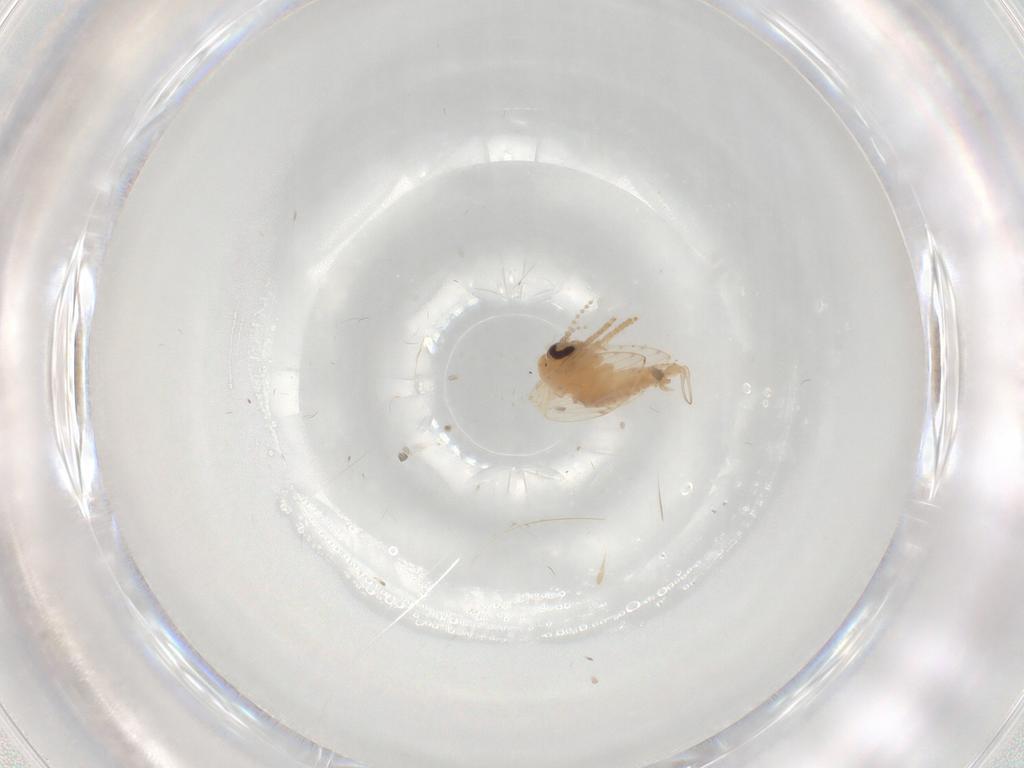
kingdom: Animalia
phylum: Arthropoda
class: Insecta
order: Diptera
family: Psychodidae
